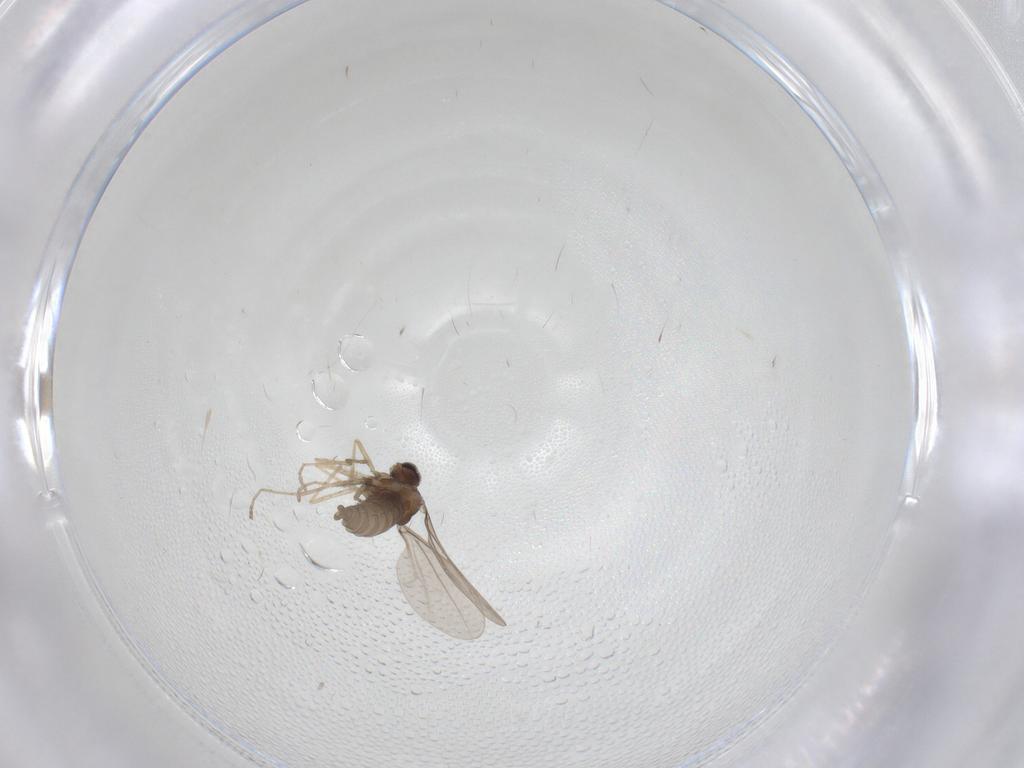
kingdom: Animalia
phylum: Arthropoda
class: Insecta
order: Diptera
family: Cecidomyiidae
